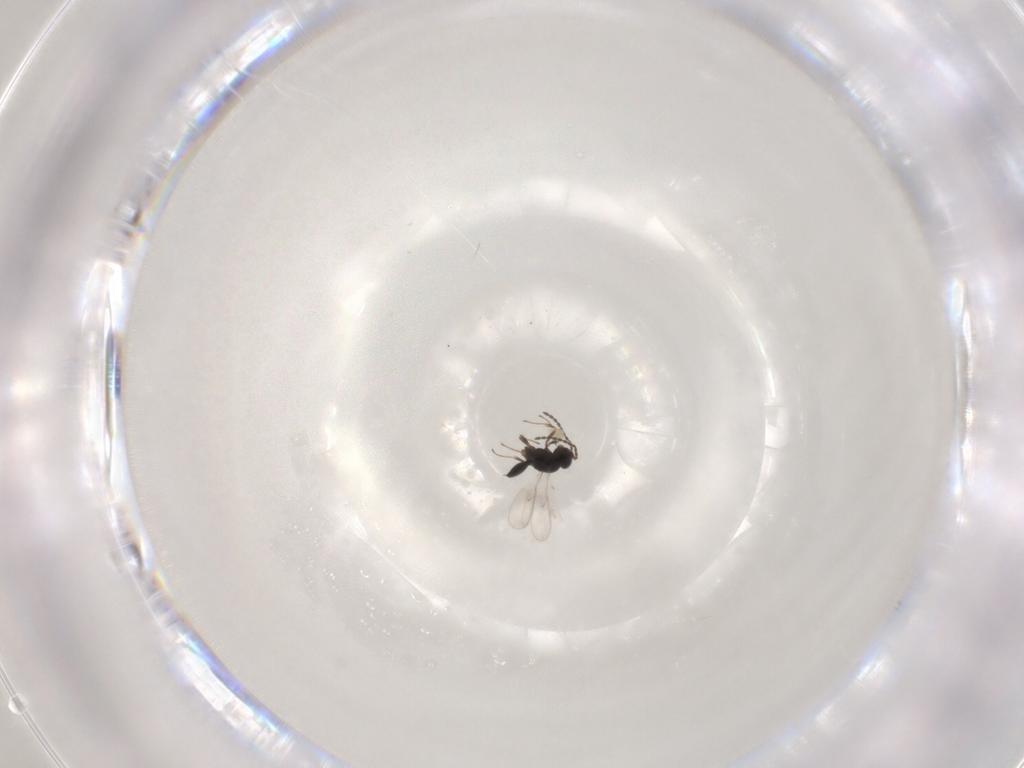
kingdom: Animalia
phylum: Arthropoda
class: Insecta
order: Hymenoptera
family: Scelionidae
